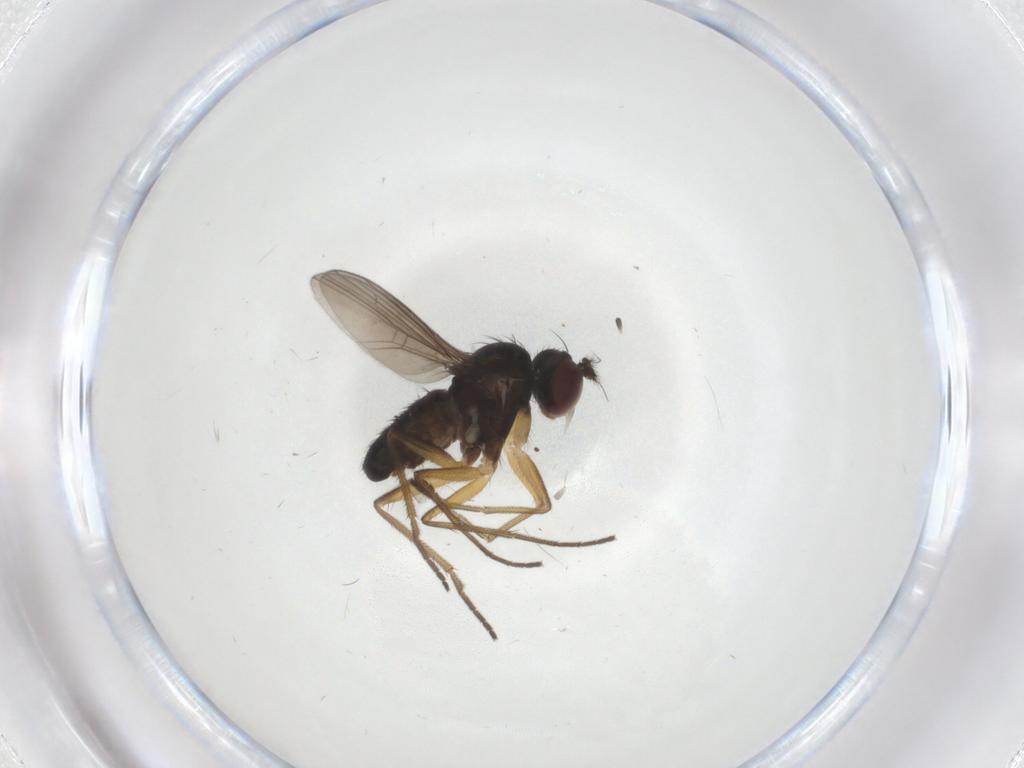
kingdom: Animalia
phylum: Arthropoda
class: Insecta
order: Diptera
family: Dolichopodidae
